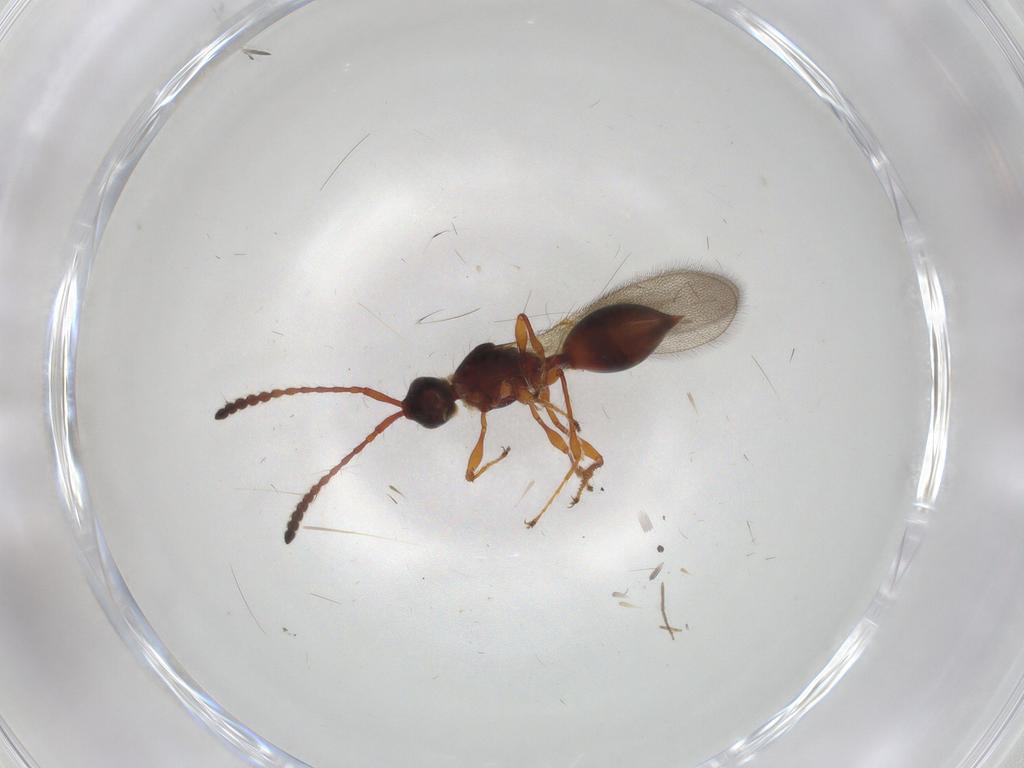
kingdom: Animalia
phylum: Arthropoda
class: Insecta
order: Hymenoptera
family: Diapriidae
